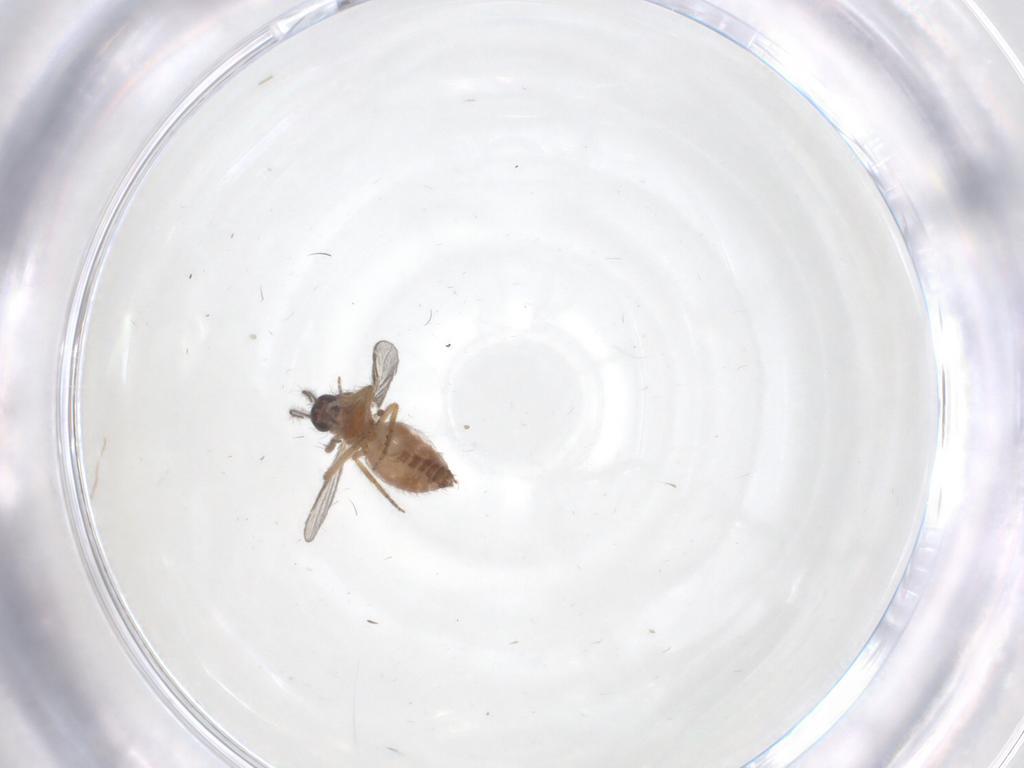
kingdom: Animalia
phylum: Arthropoda
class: Insecta
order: Diptera
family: Ceratopogonidae
